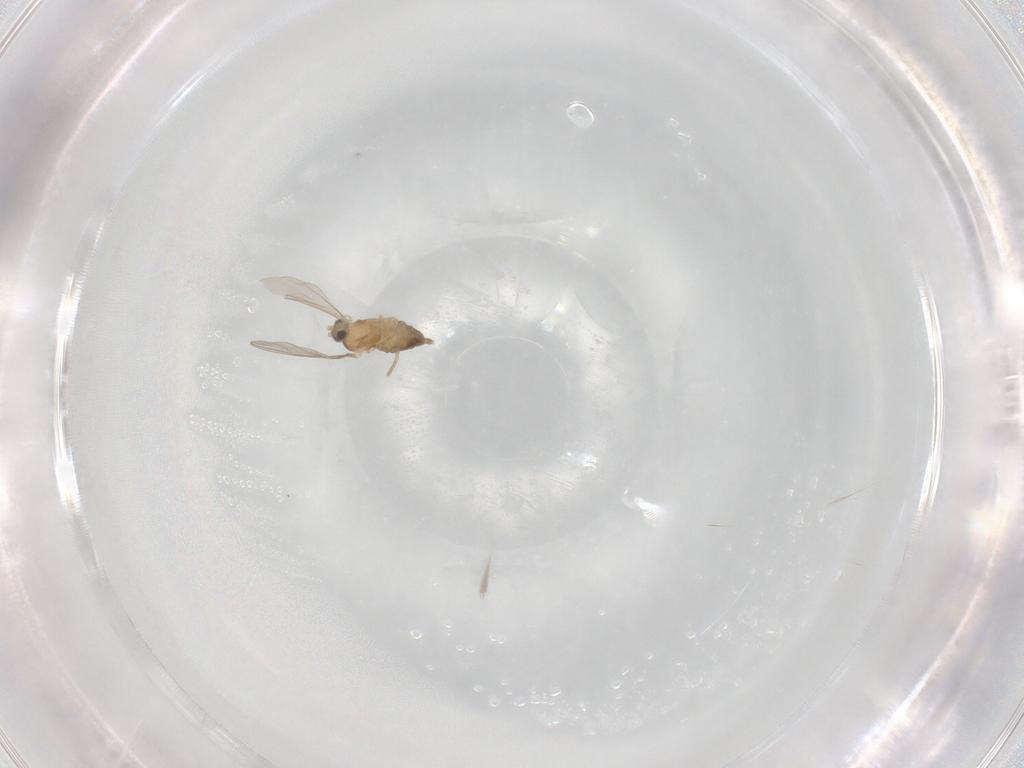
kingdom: Animalia
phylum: Arthropoda
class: Insecta
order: Diptera
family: Cecidomyiidae
